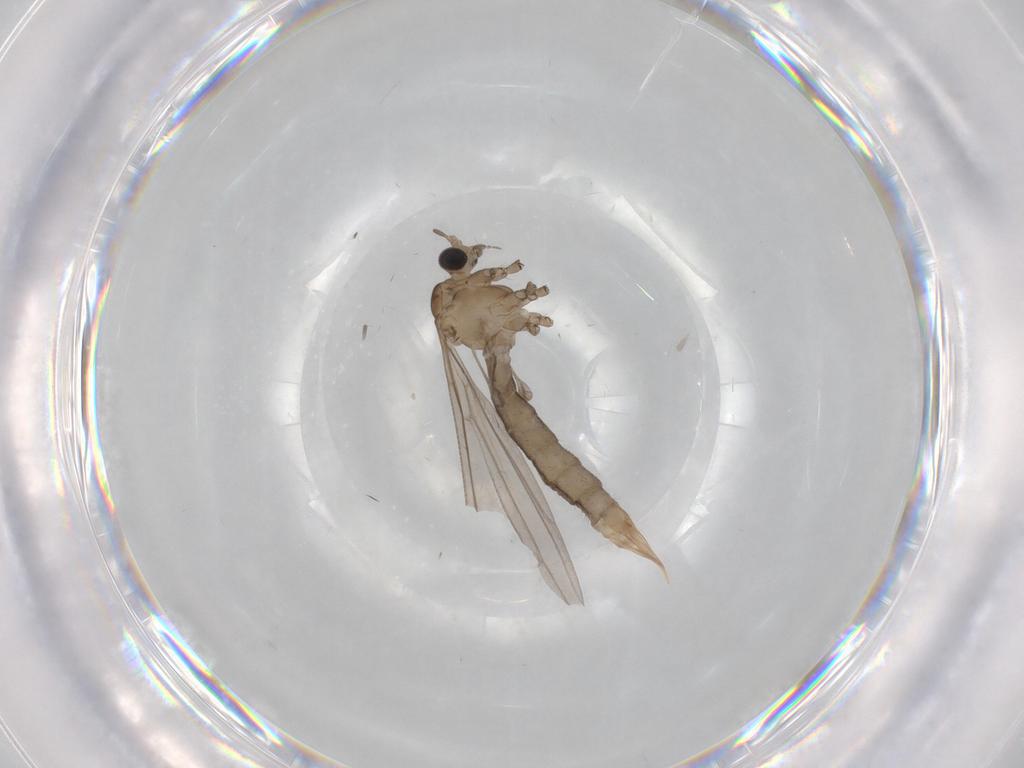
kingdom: Animalia
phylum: Arthropoda
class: Insecta
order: Diptera
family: Limoniidae
